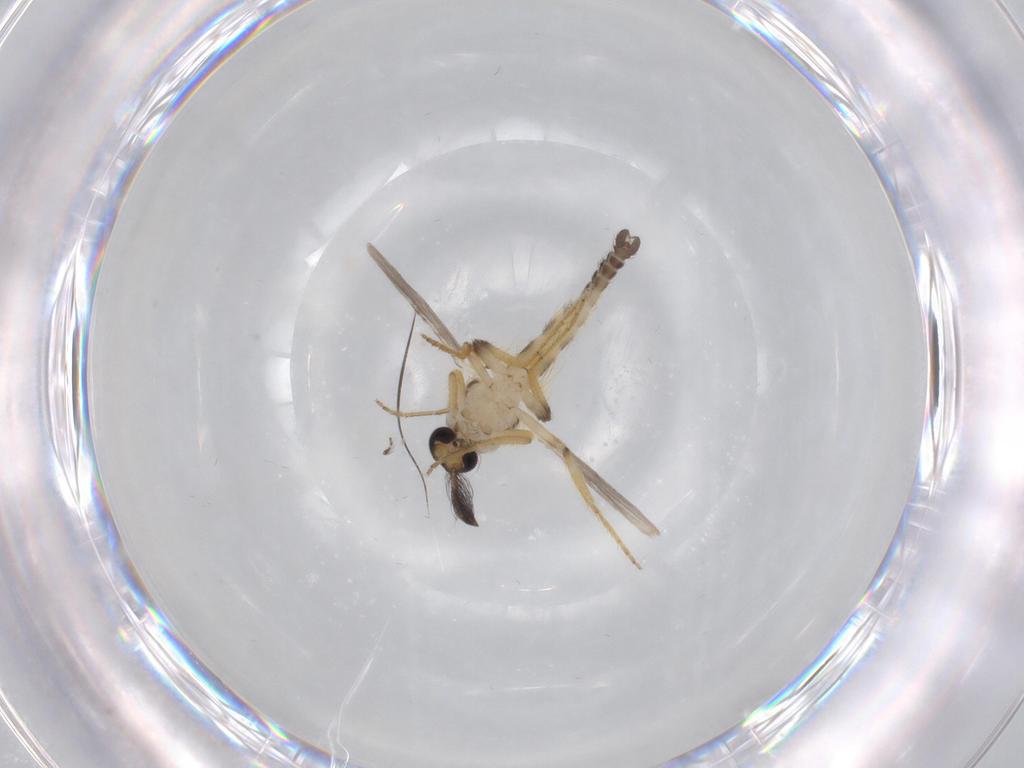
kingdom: Animalia
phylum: Arthropoda
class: Insecta
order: Diptera
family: Ceratopogonidae
